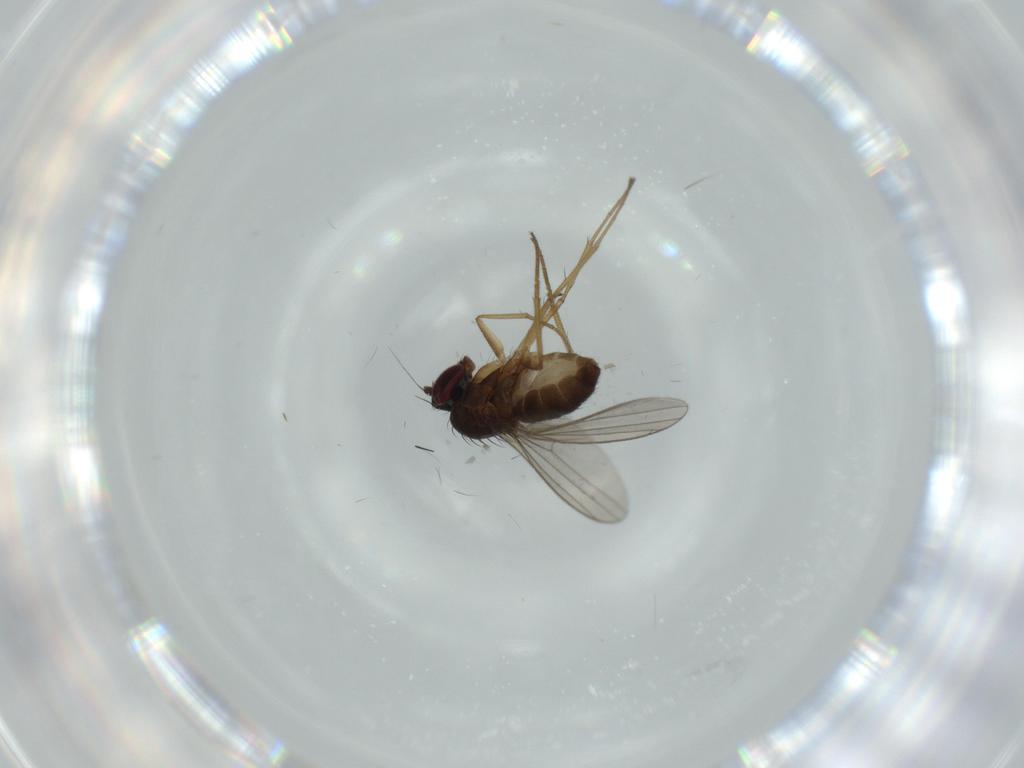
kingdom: Animalia
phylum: Arthropoda
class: Insecta
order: Diptera
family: Dolichopodidae
